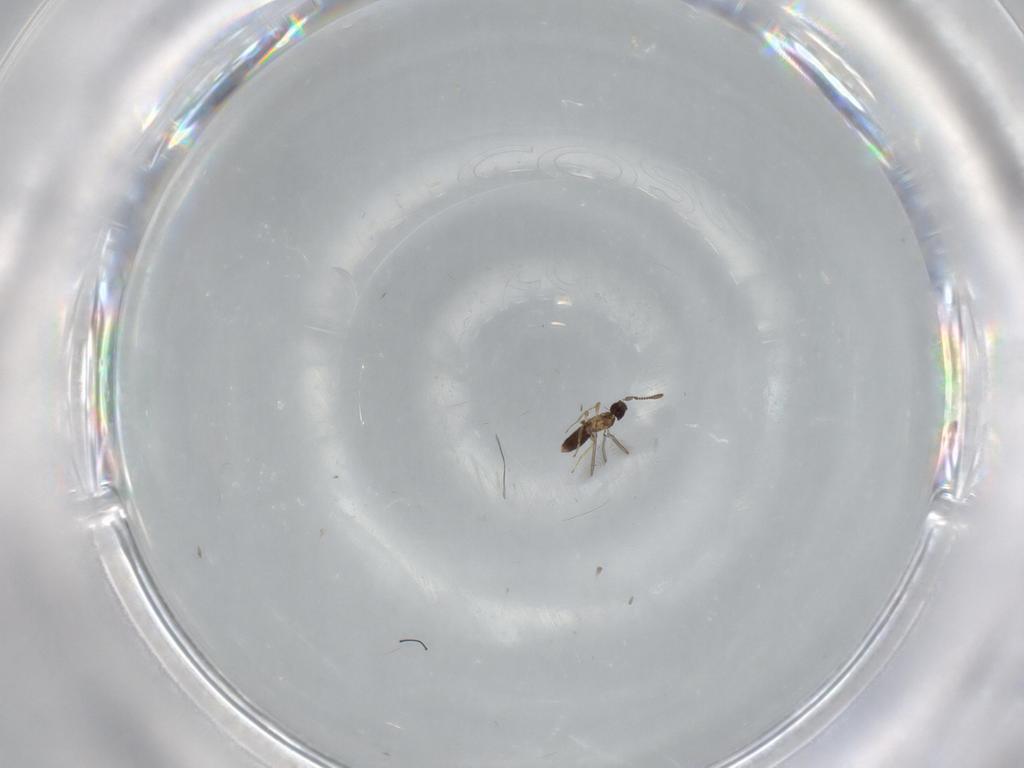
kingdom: Animalia
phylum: Arthropoda
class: Insecta
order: Hymenoptera
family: Mymaridae
